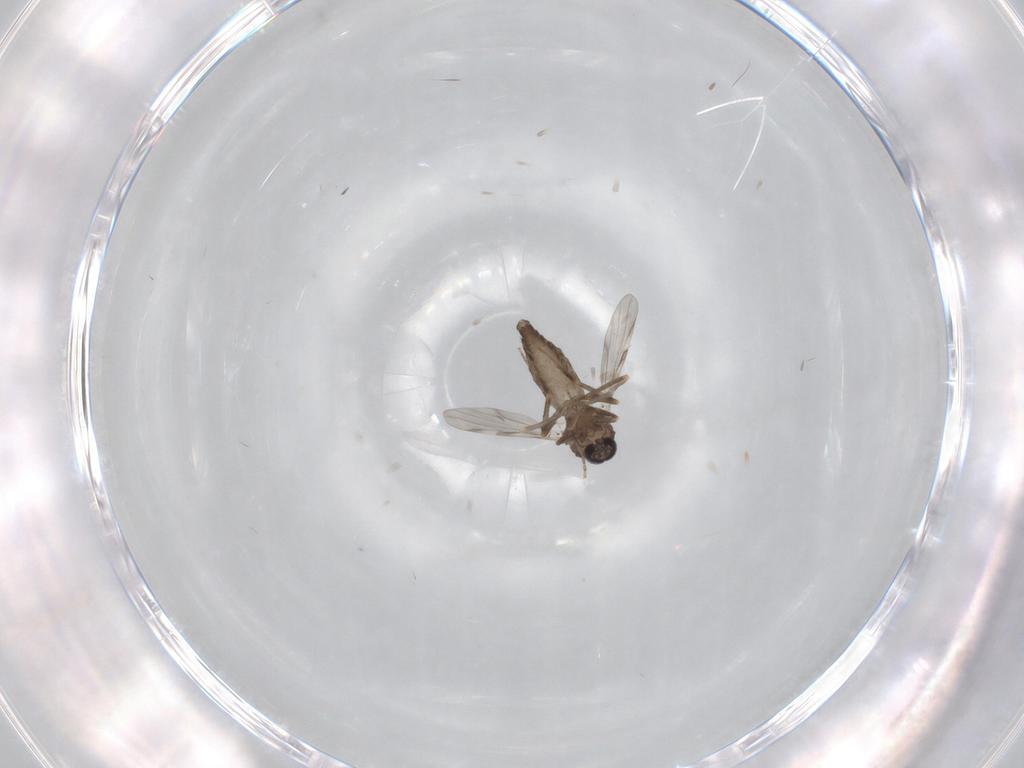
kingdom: Animalia
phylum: Arthropoda
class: Insecta
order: Diptera
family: Ceratopogonidae
